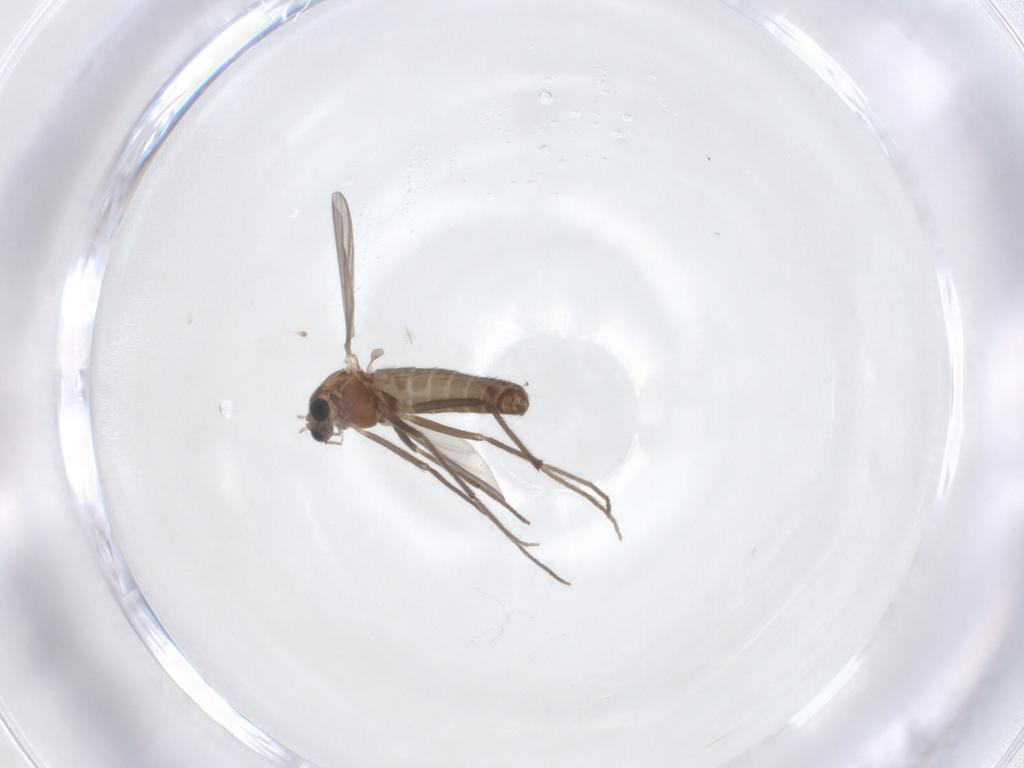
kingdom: Animalia
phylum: Arthropoda
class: Insecta
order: Diptera
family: Chironomidae
